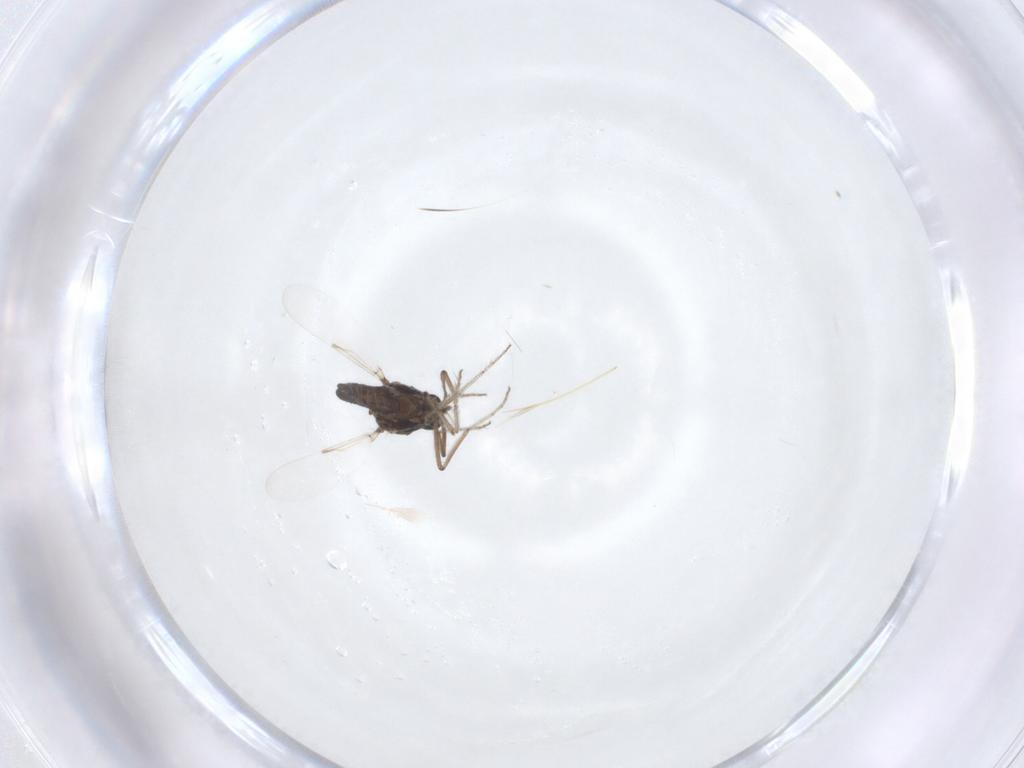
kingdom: Animalia
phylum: Arthropoda
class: Insecta
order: Diptera
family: Ceratopogonidae
